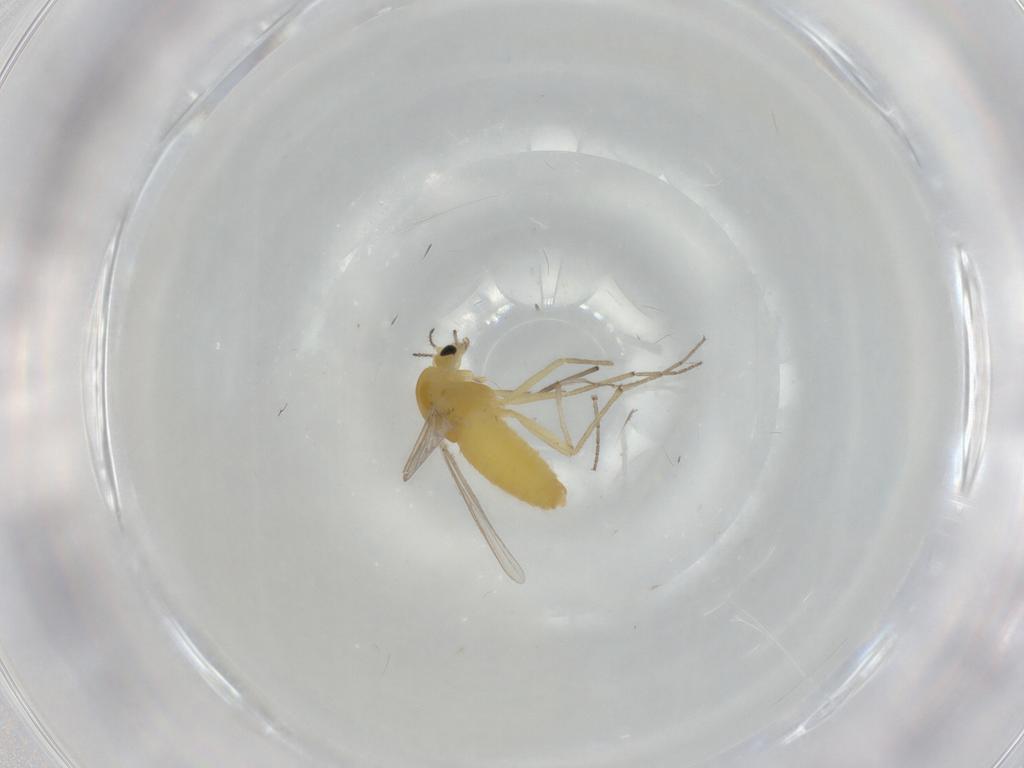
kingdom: Animalia
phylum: Arthropoda
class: Insecta
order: Diptera
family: Chironomidae
